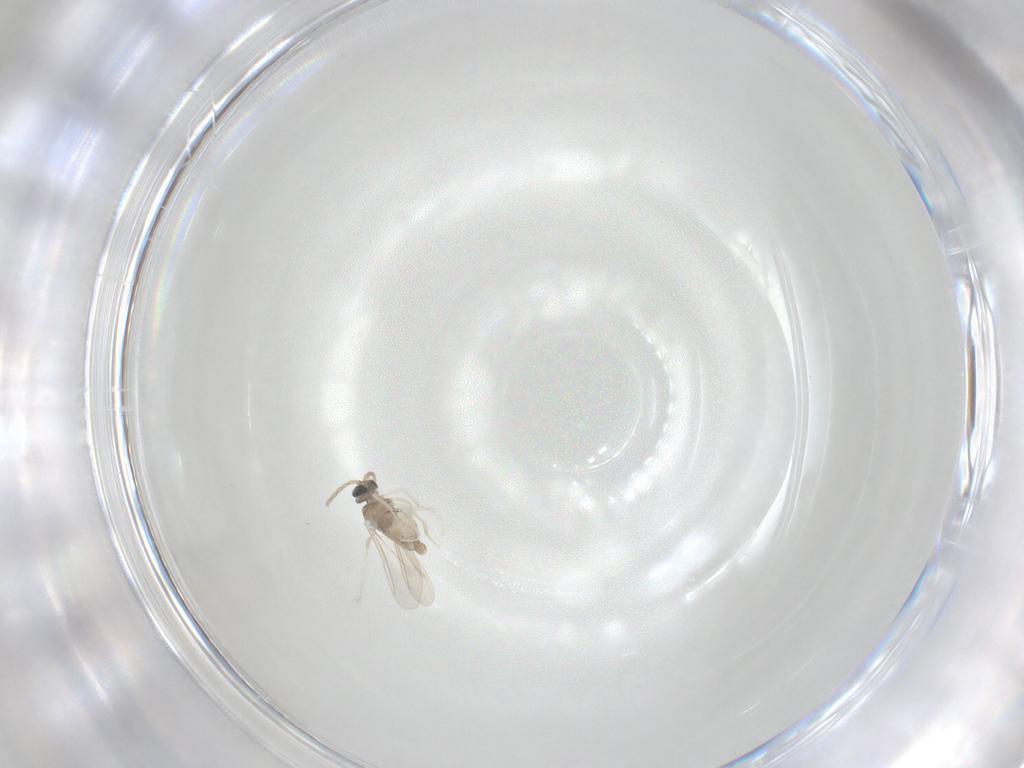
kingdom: Animalia
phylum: Arthropoda
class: Insecta
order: Diptera
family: Cecidomyiidae
